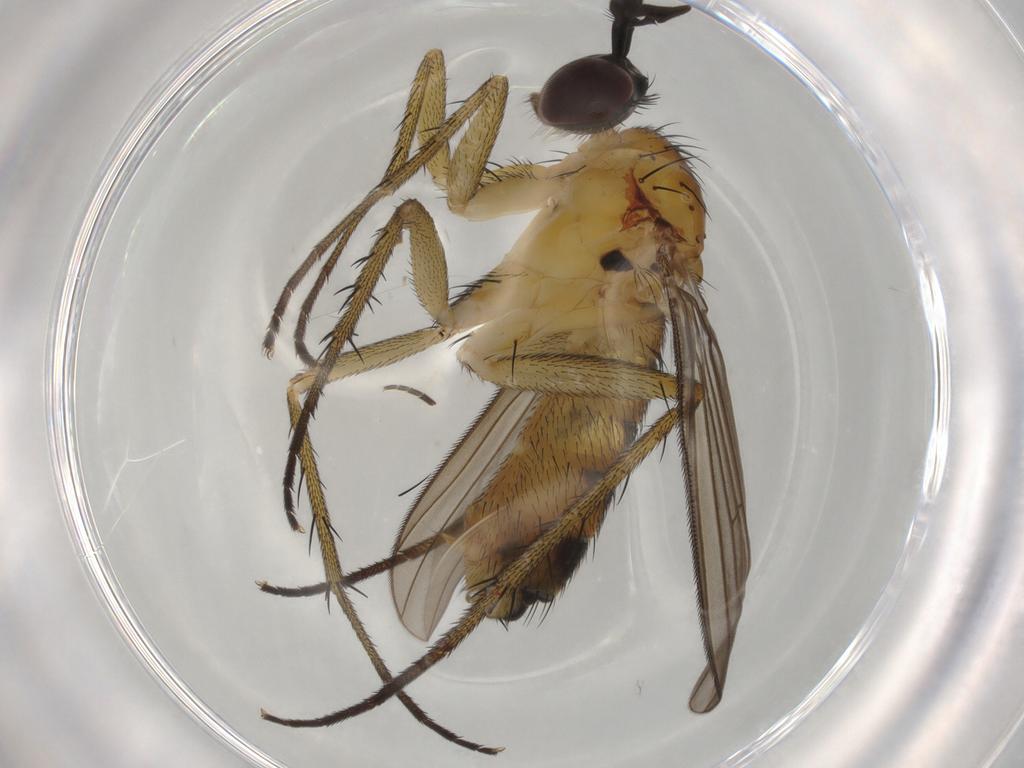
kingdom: Animalia
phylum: Arthropoda
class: Insecta
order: Diptera
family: Dolichopodidae
